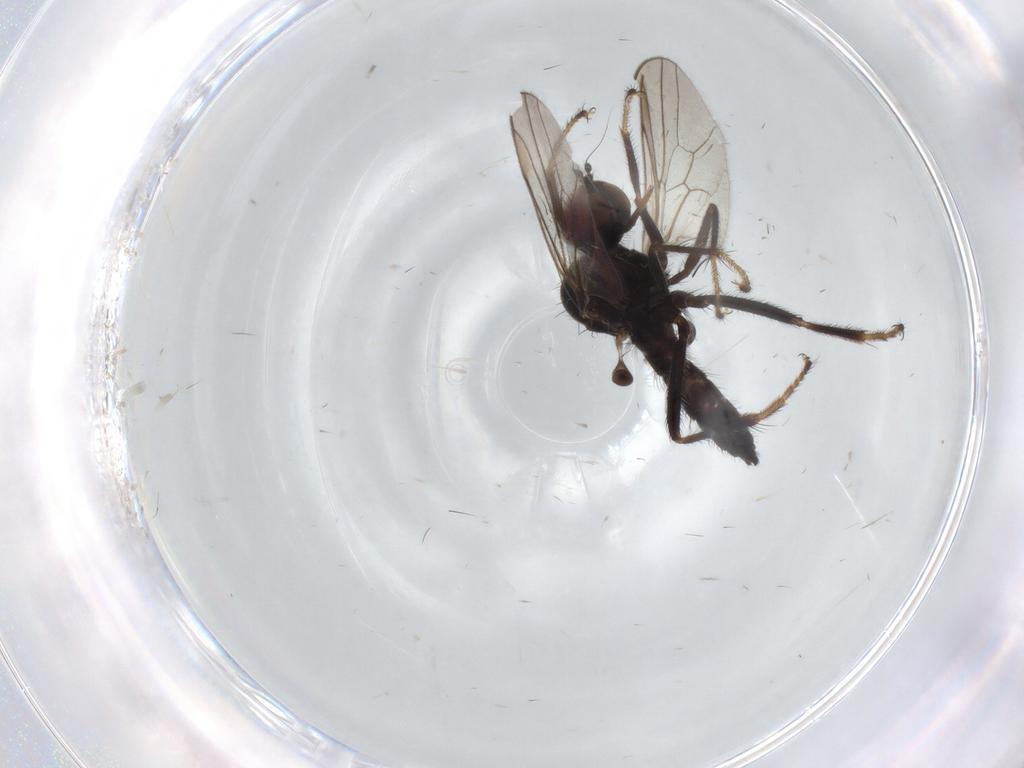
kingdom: Animalia
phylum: Arthropoda
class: Insecta
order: Diptera
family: Hybotidae
